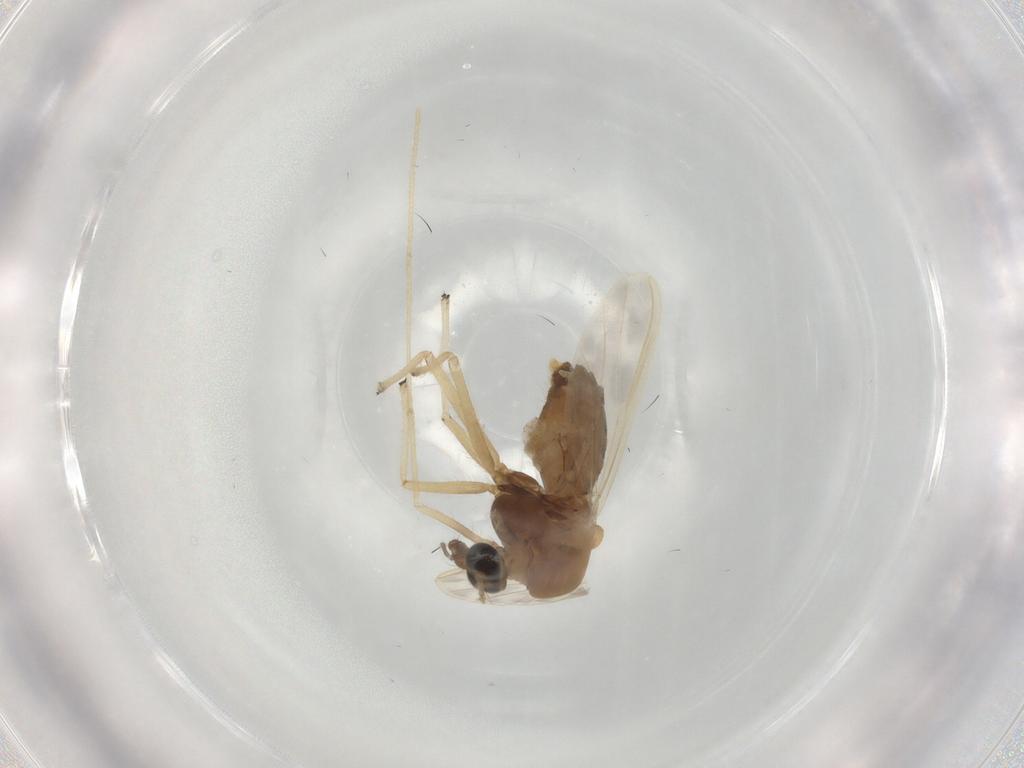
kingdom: Animalia
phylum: Arthropoda
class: Insecta
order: Diptera
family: Chironomidae
